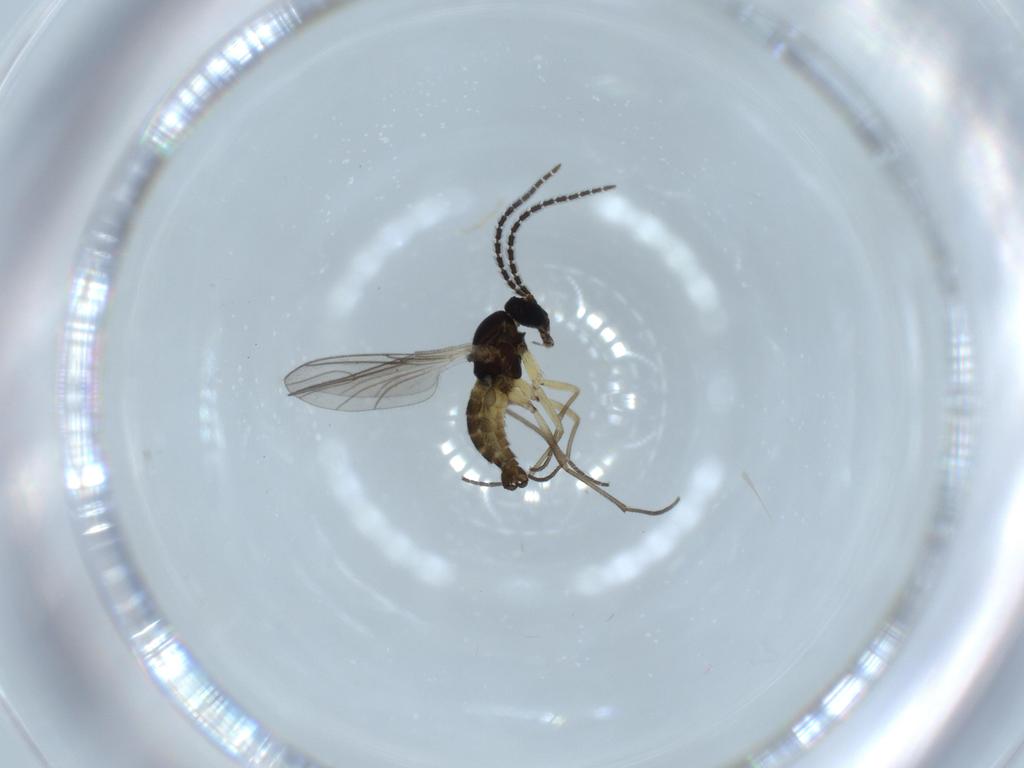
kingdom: Animalia
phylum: Arthropoda
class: Insecta
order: Diptera
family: Sciaridae
